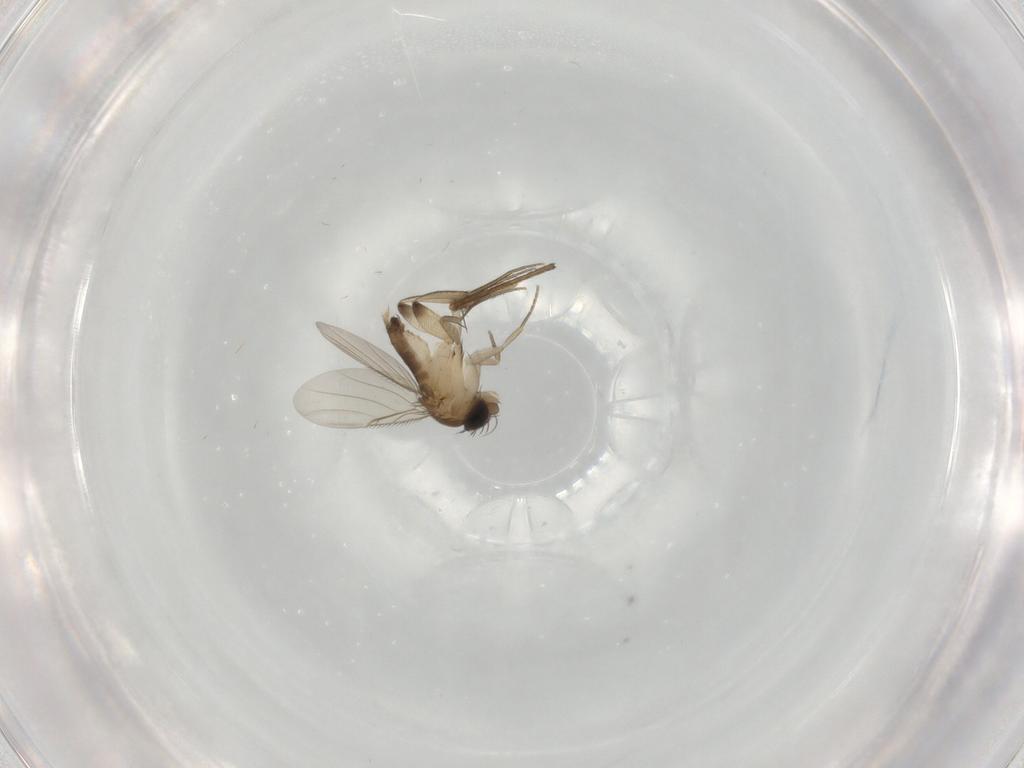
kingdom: Animalia
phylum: Arthropoda
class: Insecta
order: Diptera
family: Phoridae
